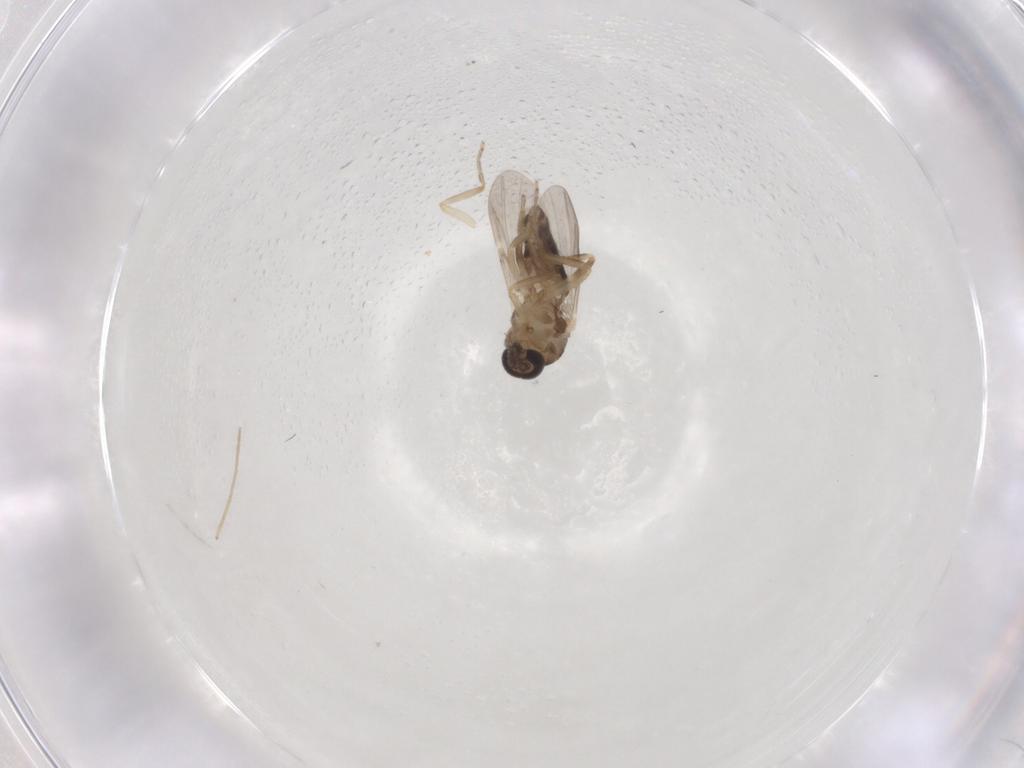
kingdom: Animalia
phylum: Arthropoda
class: Insecta
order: Diptera
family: Ceratopogonidae
